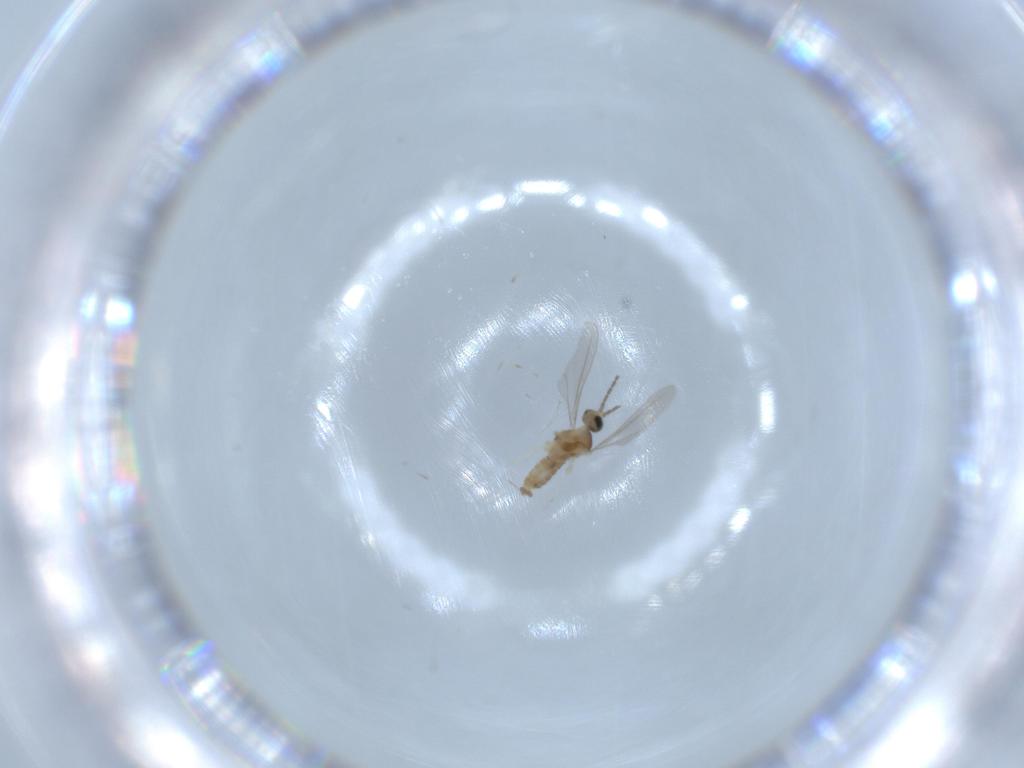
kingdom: Animalia
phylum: Arthropoda
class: Insecta
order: Diptera
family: Cecidomyiidae
